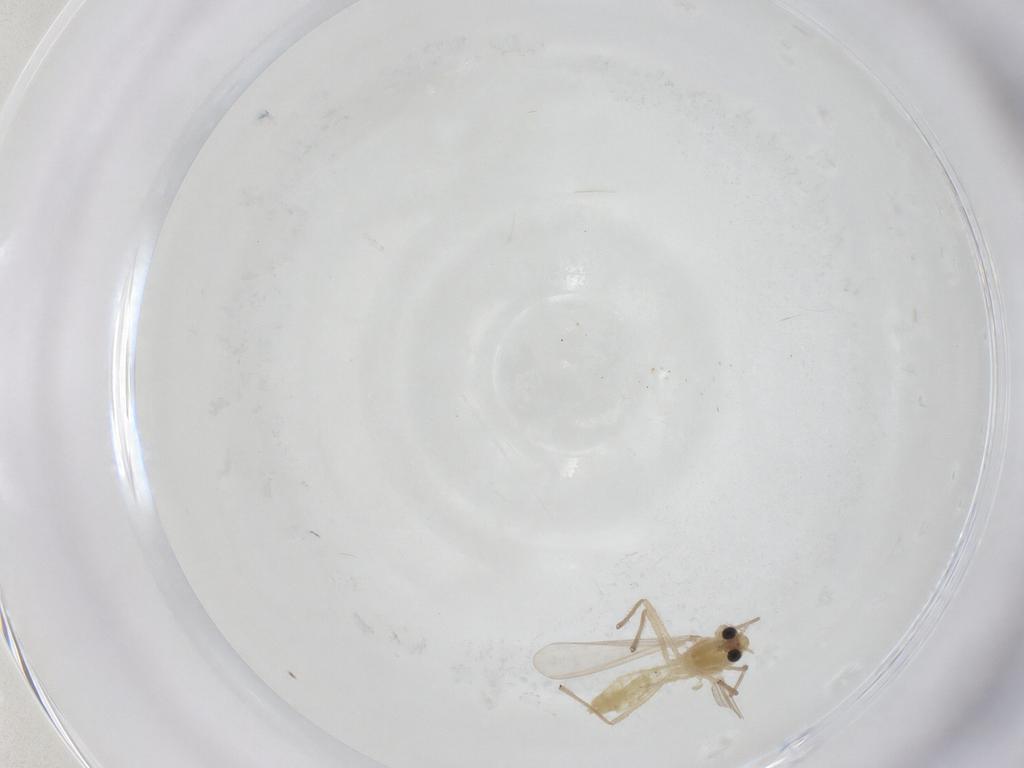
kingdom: Animalia
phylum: Arthropoda
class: Insecta
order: Diptera
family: Chironomidae
